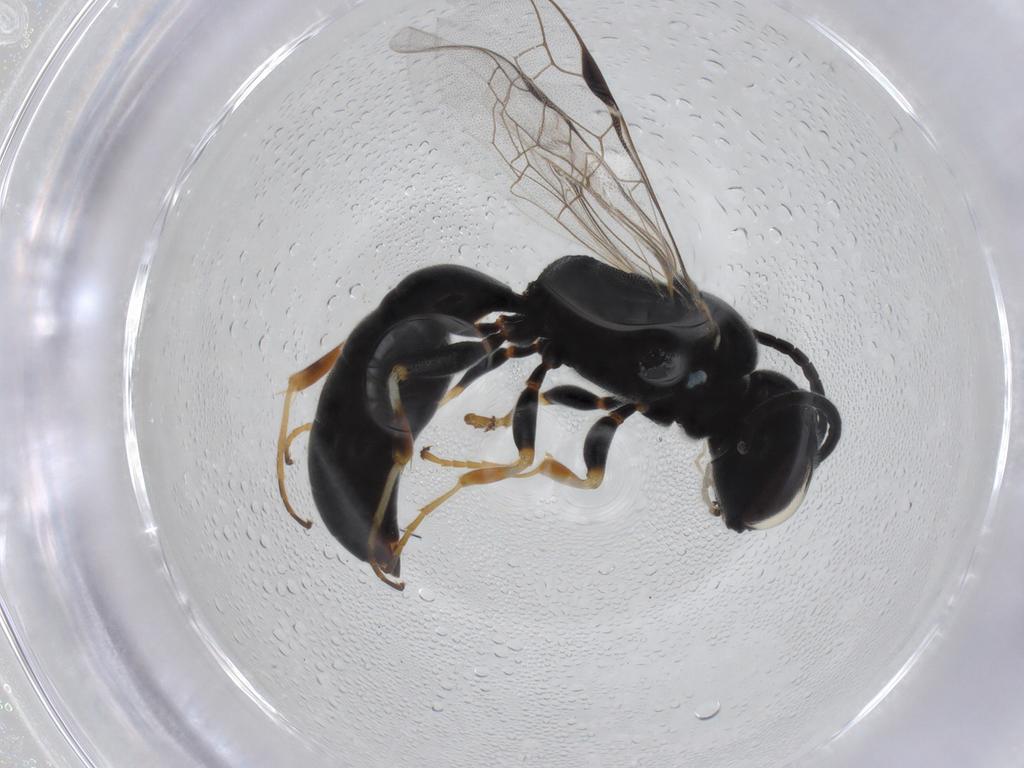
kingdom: Animalia
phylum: Arthropoda
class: Insecta
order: Hymenoptera
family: Pemphredonidae
